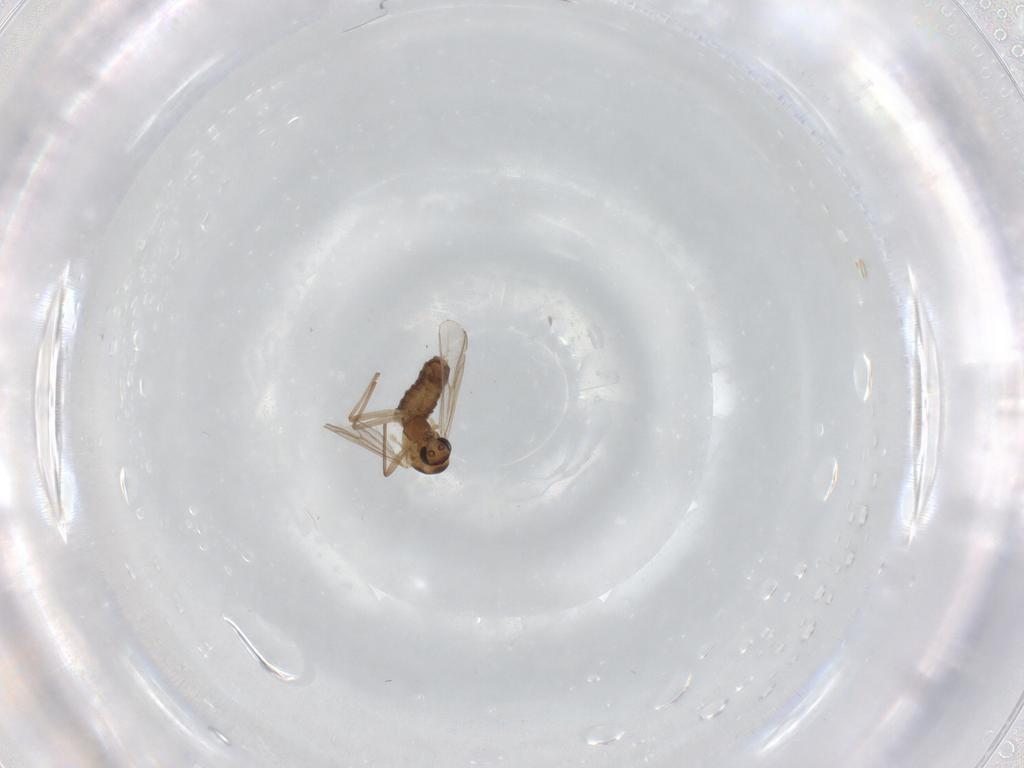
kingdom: Animalia
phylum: Arthropoda
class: Insecta
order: Diptera
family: Chironomidae
